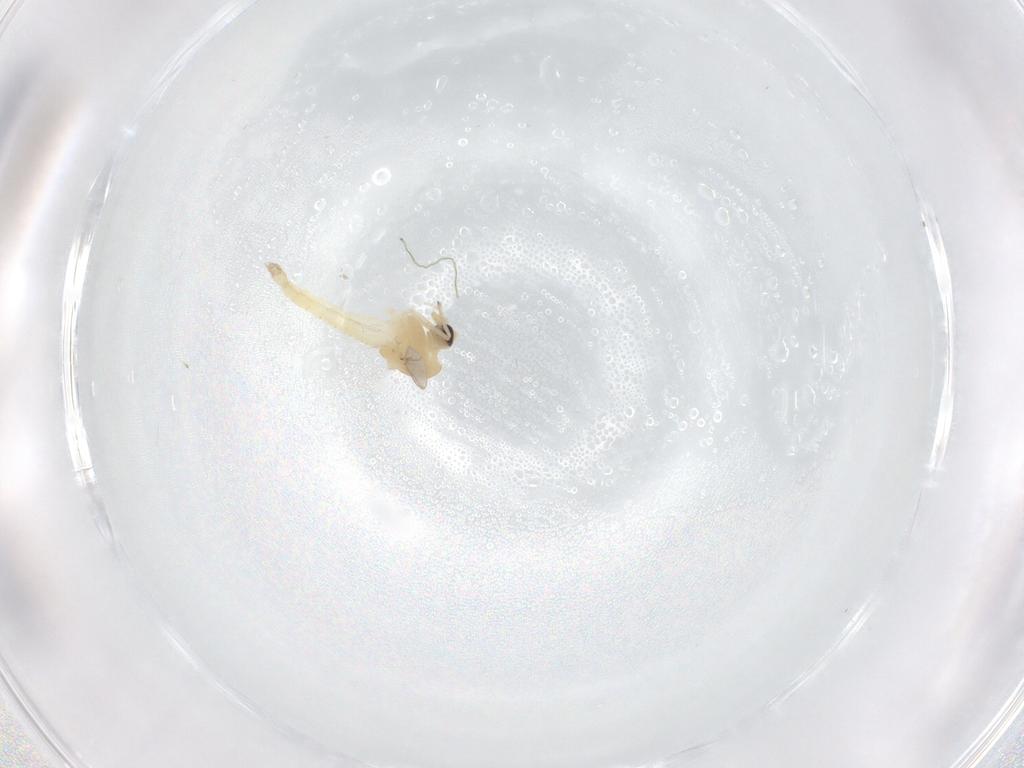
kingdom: Animalia
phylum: Arthropoda
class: Insecta
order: Diptera
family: Chironomidae
